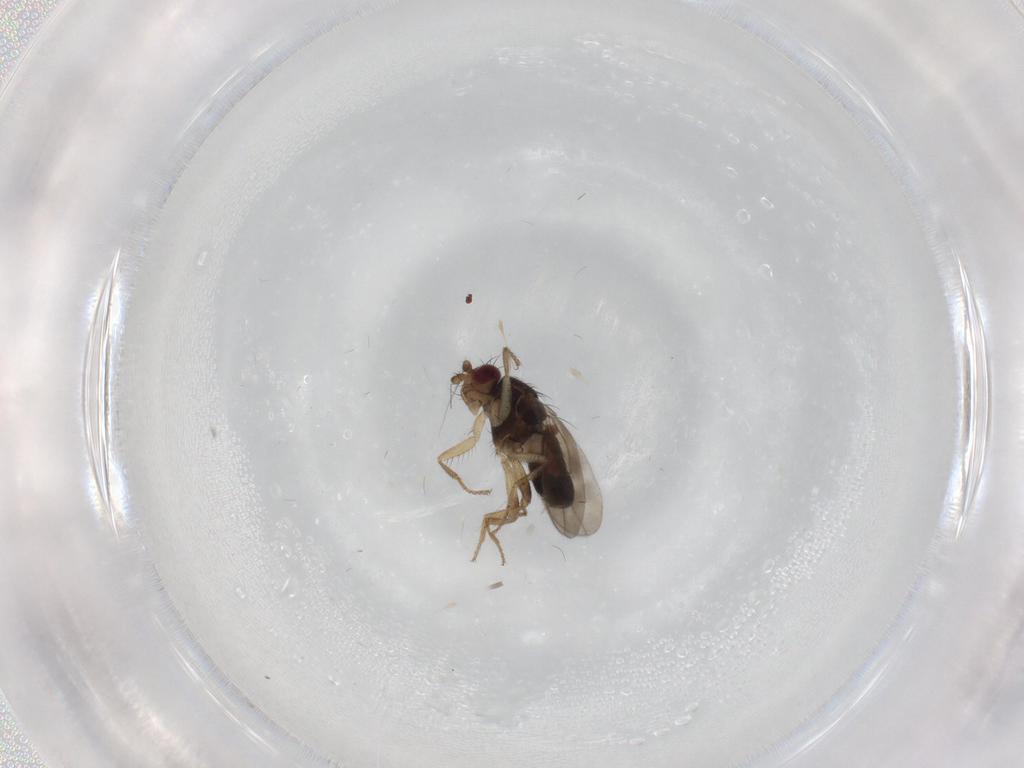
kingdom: Animalia
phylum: Arthropoda
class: Insecta
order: Diptera
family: Sphaeroceridae
